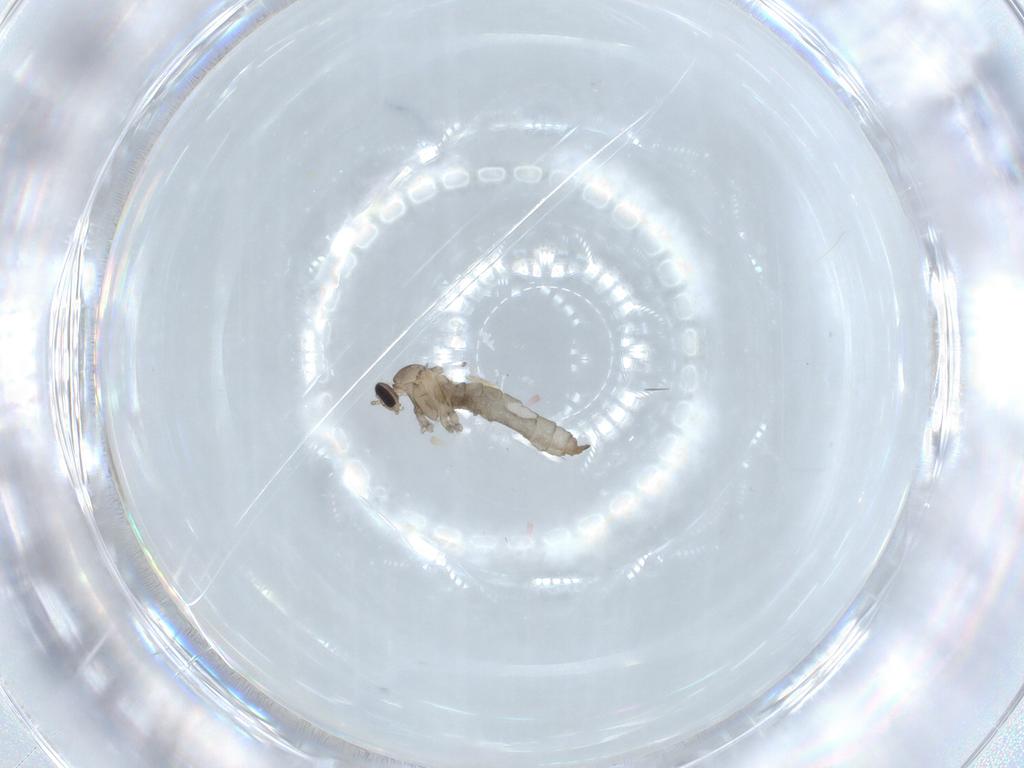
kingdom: Animalia
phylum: Arthropoda
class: Insecta
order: Diptera
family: Cecidomyiidae
